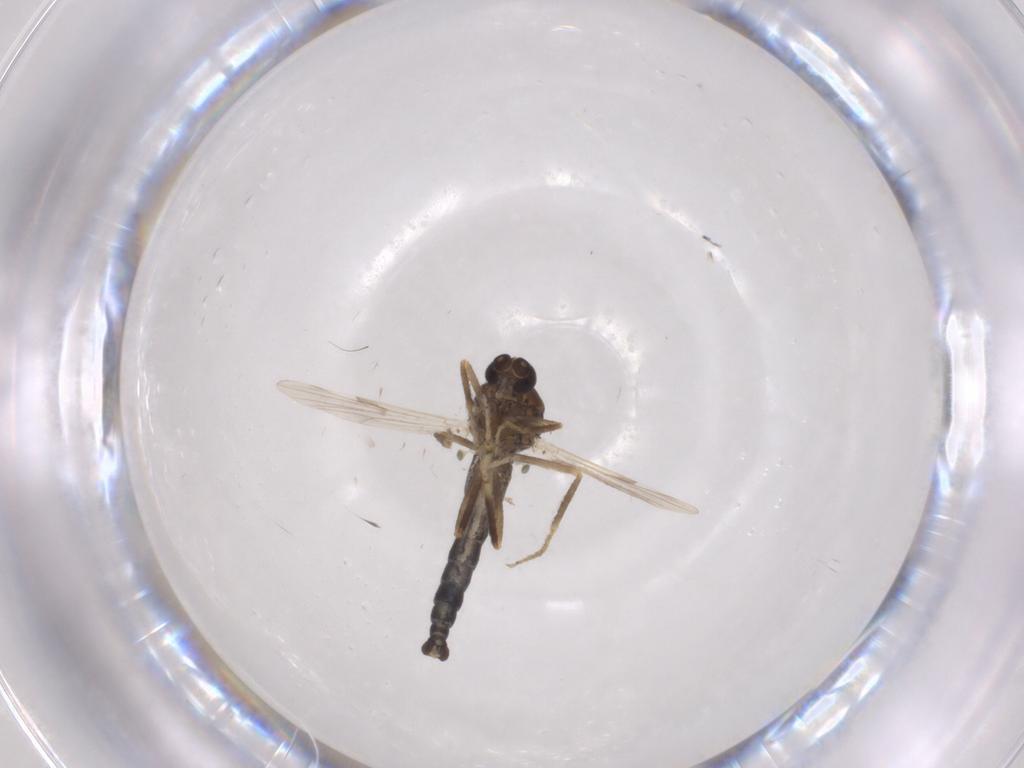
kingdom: Animalia
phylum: Arthropoda
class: Insecta
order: Diptera
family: Ceratopogonidae
